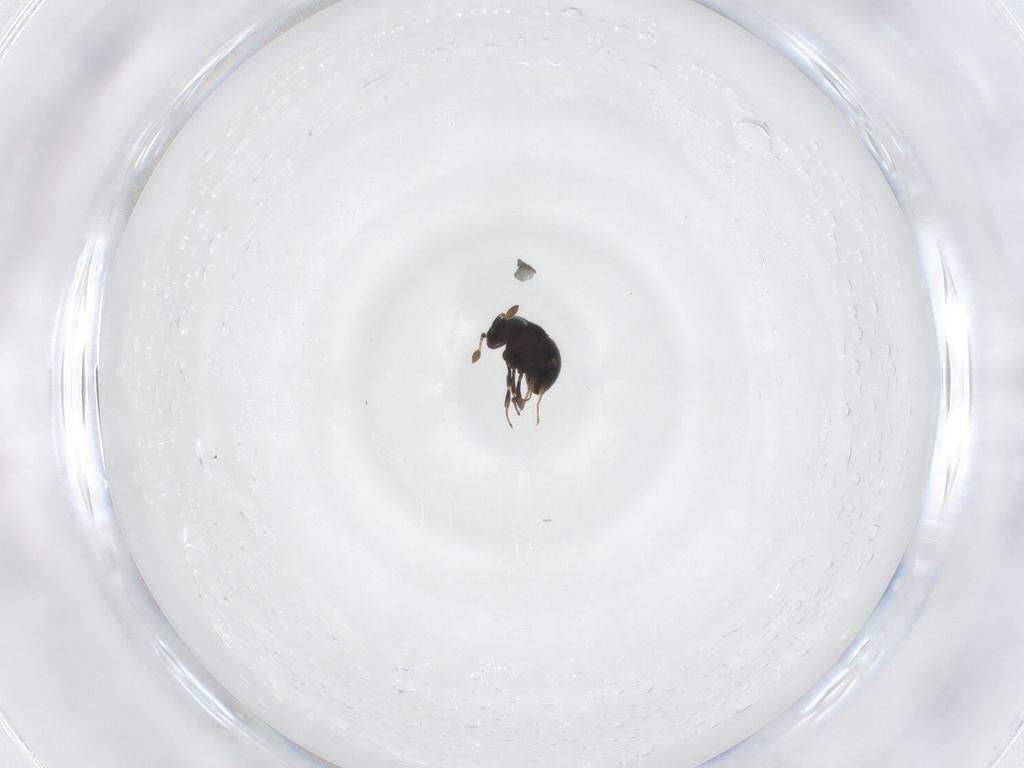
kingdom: Animalia
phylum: Arthropoda
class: Insecta
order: Hymenoptera
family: Scelionidae
